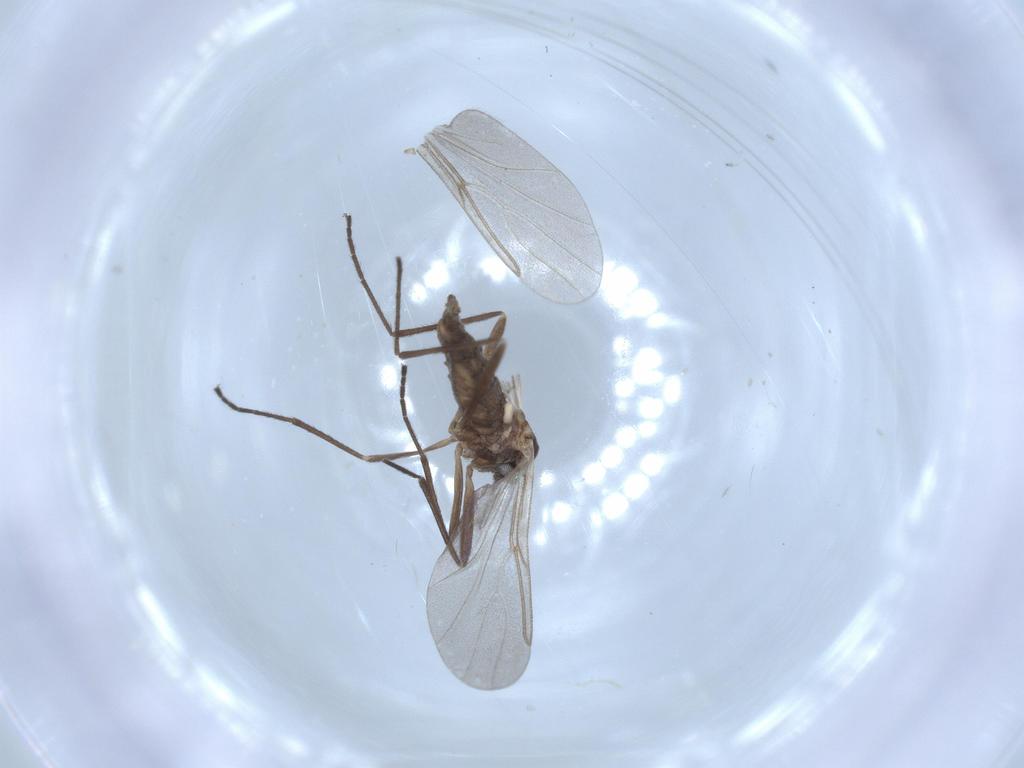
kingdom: Animalia
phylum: Arthropoda
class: Insecta
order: Diptera
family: Cecidomyiidae
